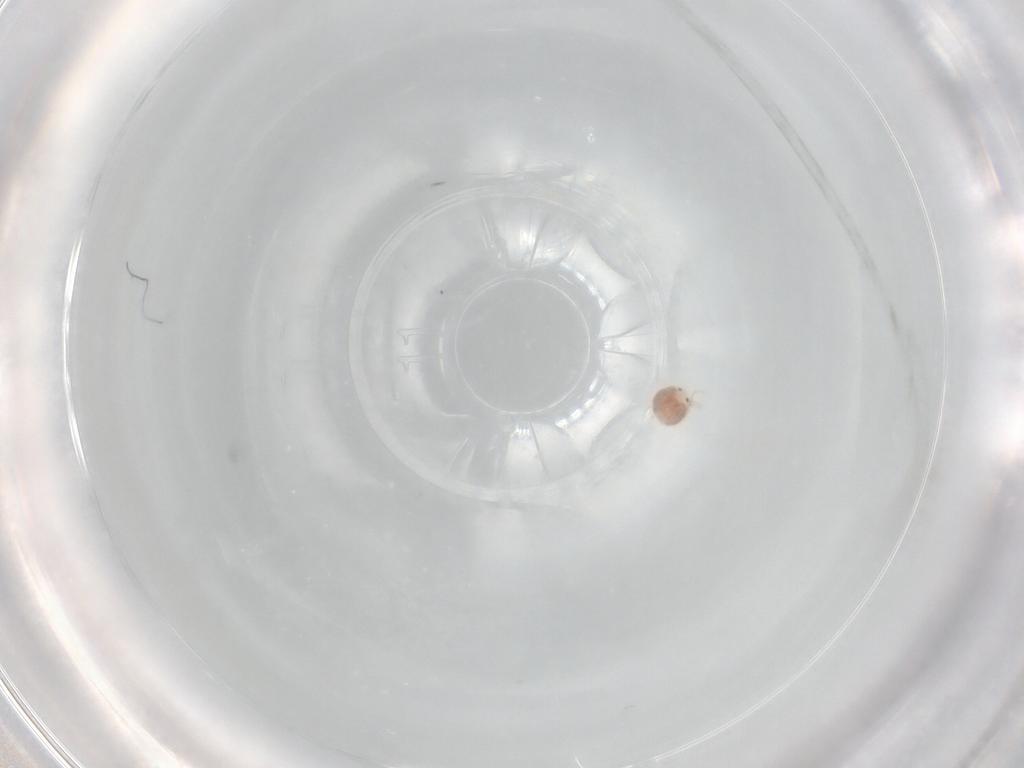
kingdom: Animalia
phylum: Arthropoda
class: Arachnida
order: Trombidiformes
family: Hygrobatidae
